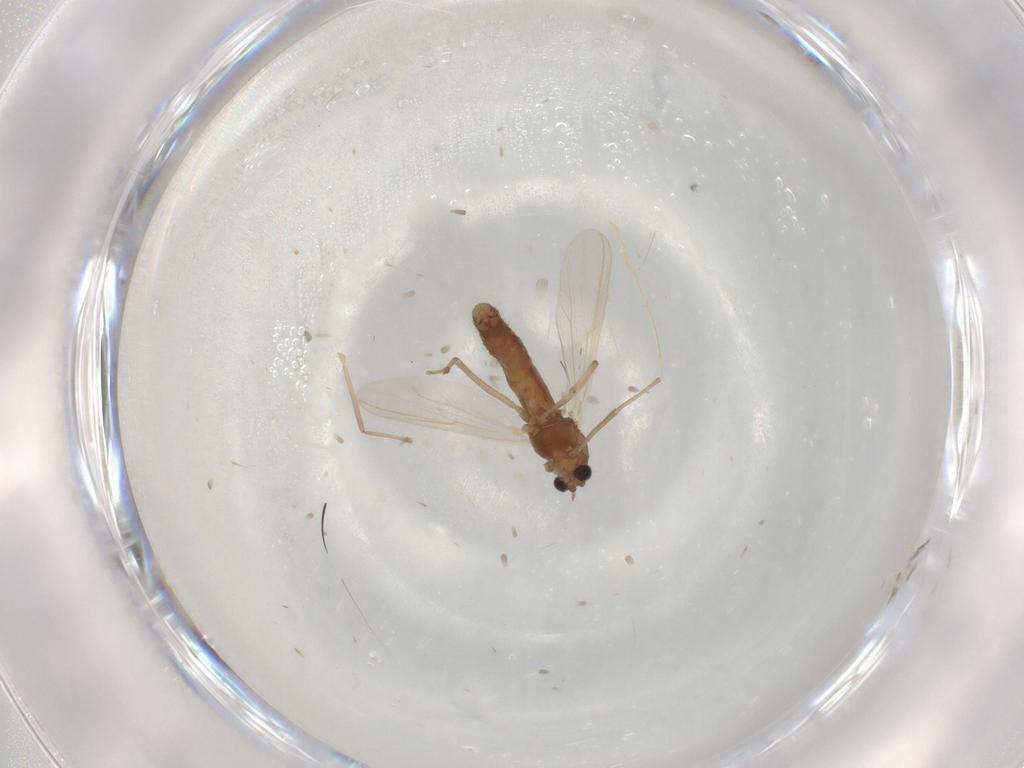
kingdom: Animalia
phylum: Arthropoda
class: Insecta
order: Diptera
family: Chironomidae
